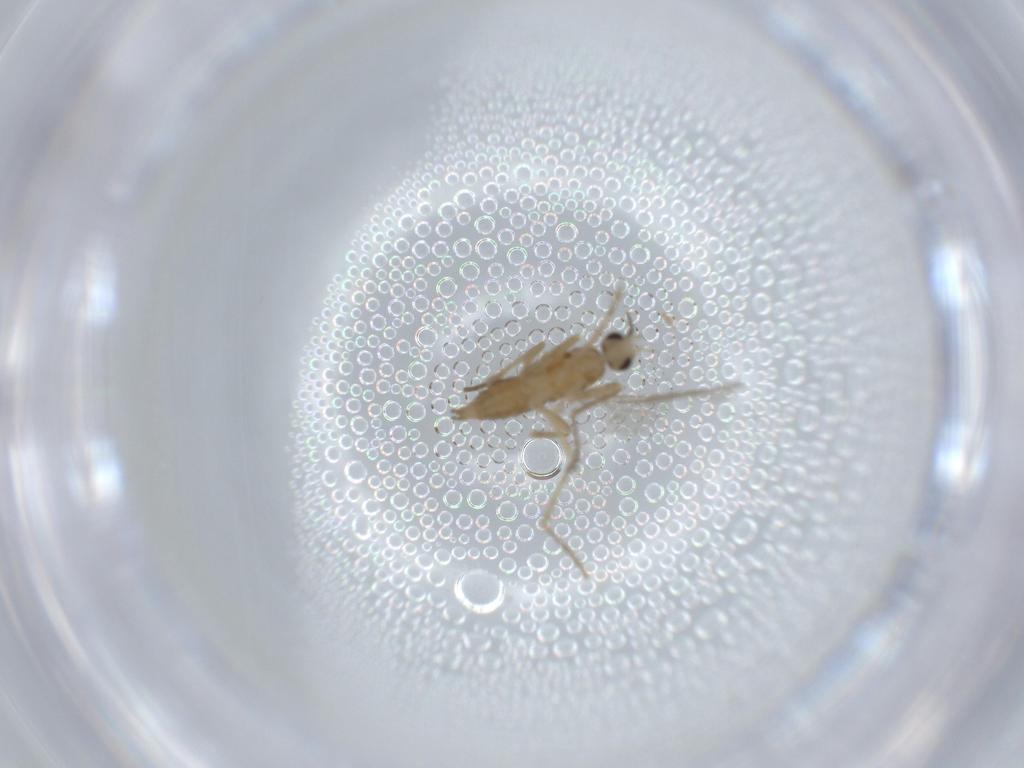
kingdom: Animalia
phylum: Arthropoda
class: Insecta
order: Diptera
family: Cecidomyiidae
